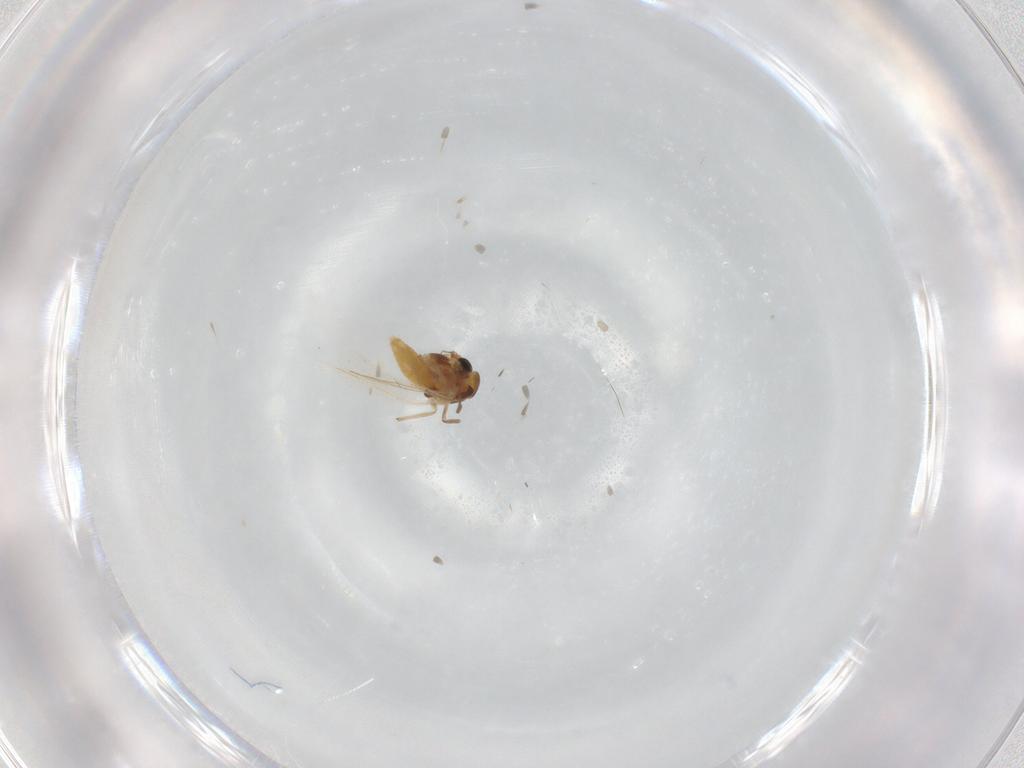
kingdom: Animalia
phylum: Arthropoda
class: Insecta
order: Diptera
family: Chironomidae
